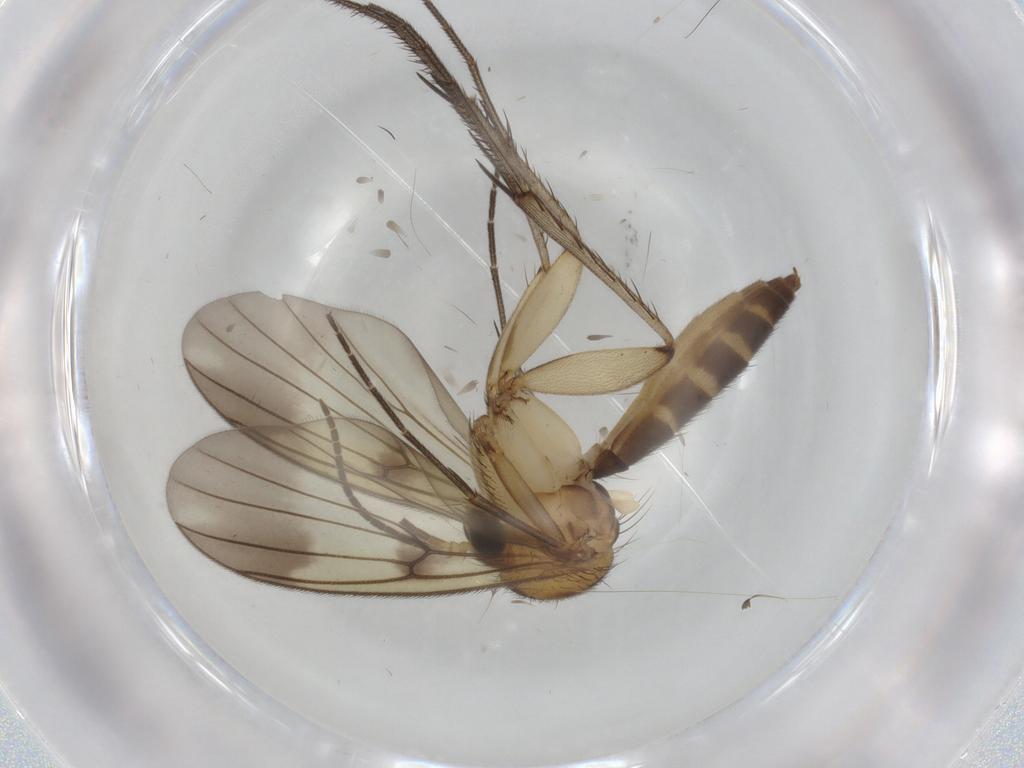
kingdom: Animalia
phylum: Arthropoda
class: Insecta
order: Diptera
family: Mycetophilidae
